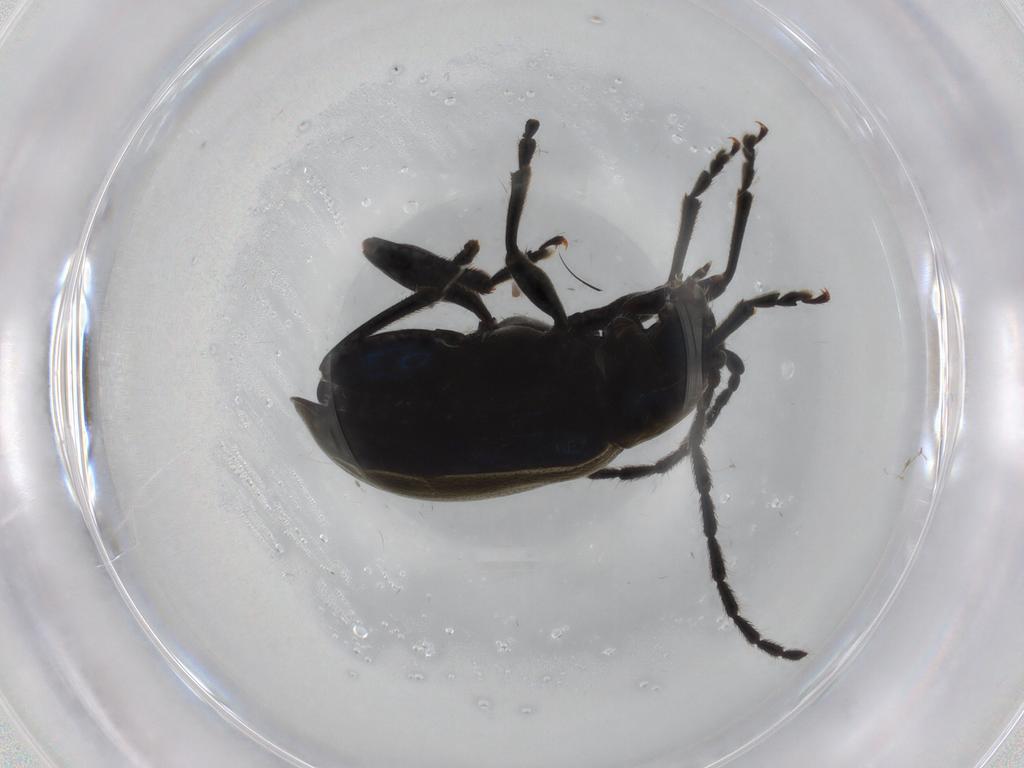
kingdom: Animalia
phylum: Arthropoda
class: Insecta
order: Coleoptera
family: Chrysomelidae
